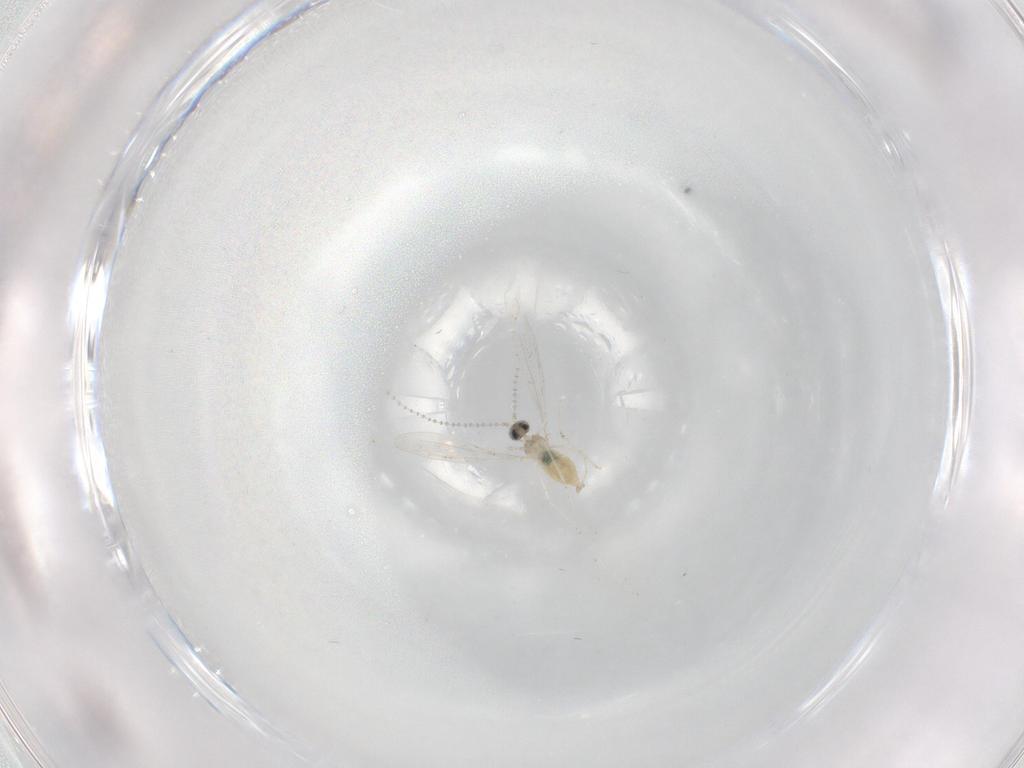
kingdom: Animalia
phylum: Arthropoda
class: Insecta
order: Diptera
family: Cecidomyiidae
